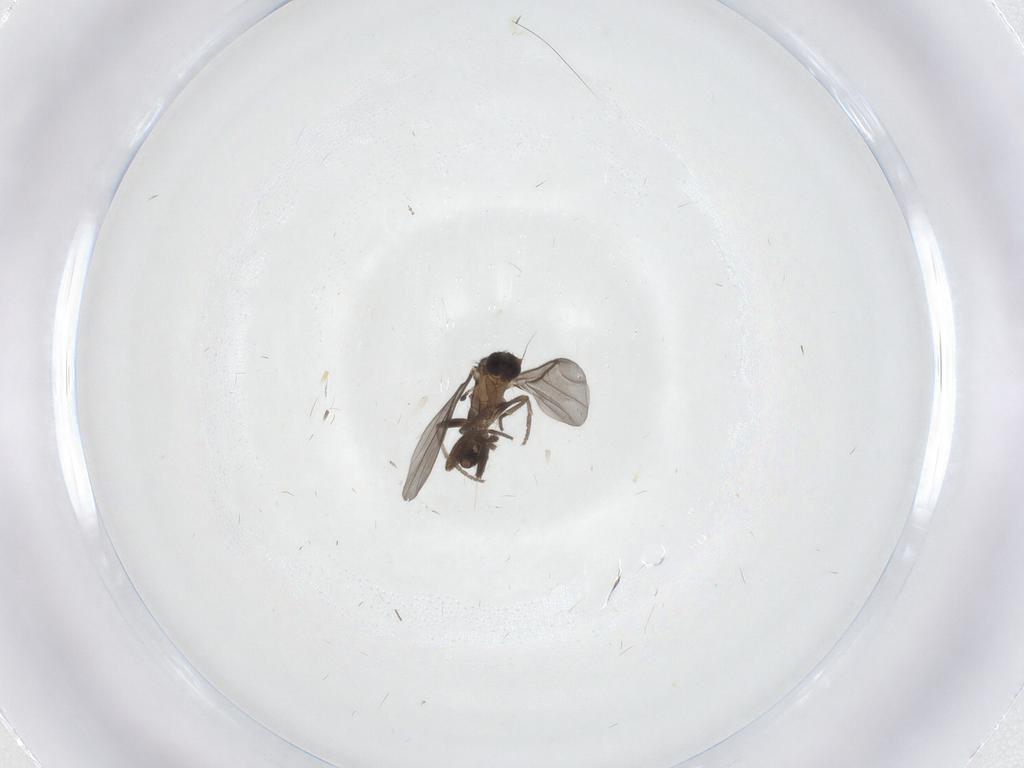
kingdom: Animalia
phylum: Arthropoda
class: Insecta
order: Diptera
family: Phoridae
